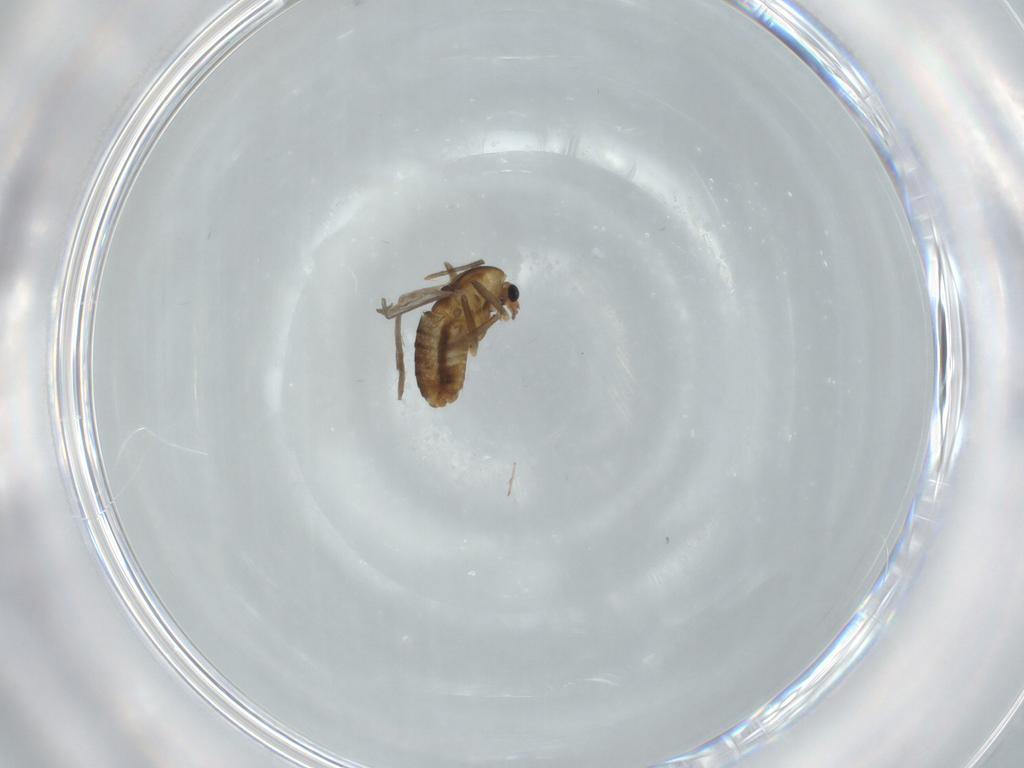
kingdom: Animalia
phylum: Arthropoda
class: Insecta
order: Diptera
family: Chironomidae
